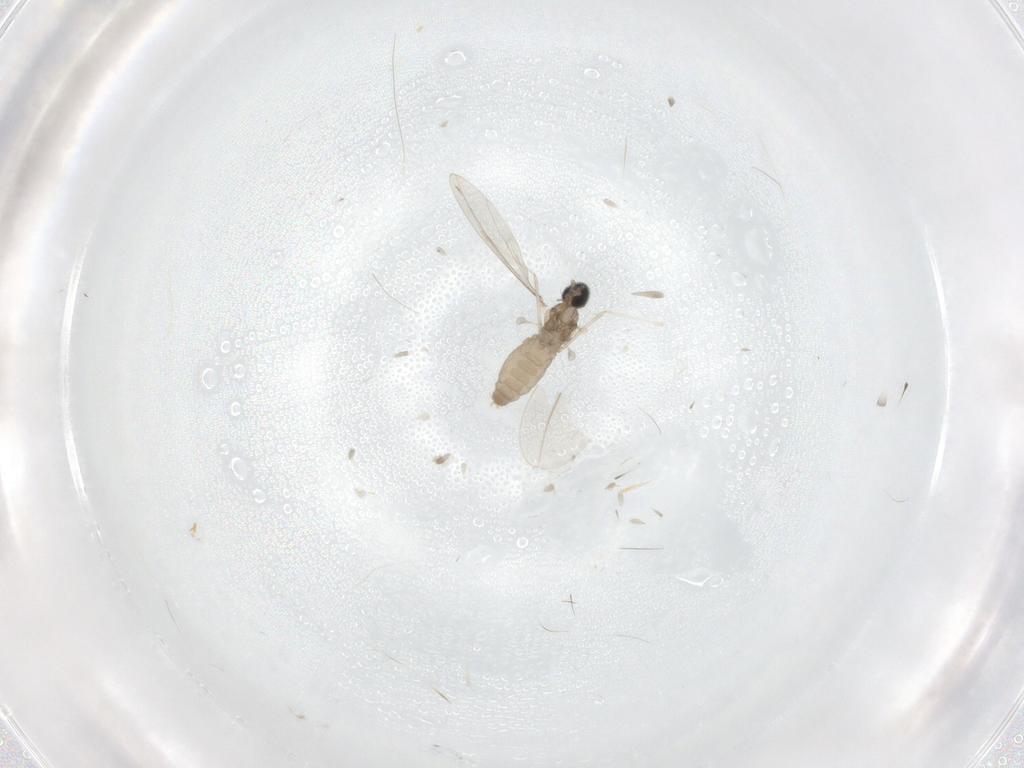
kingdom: Animalia
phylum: Arthropoda
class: Insecta
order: Diptera
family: Cecidomyiidae
